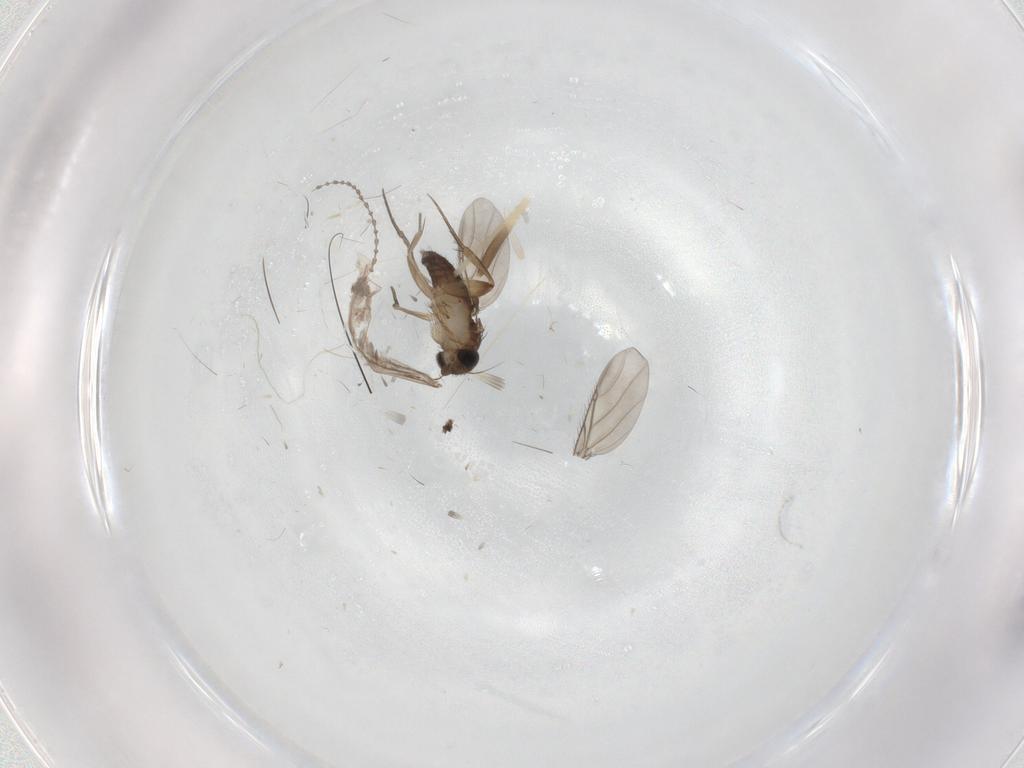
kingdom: Animalia
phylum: Arthropoda
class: Insecta
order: Diptera
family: Phoridae
